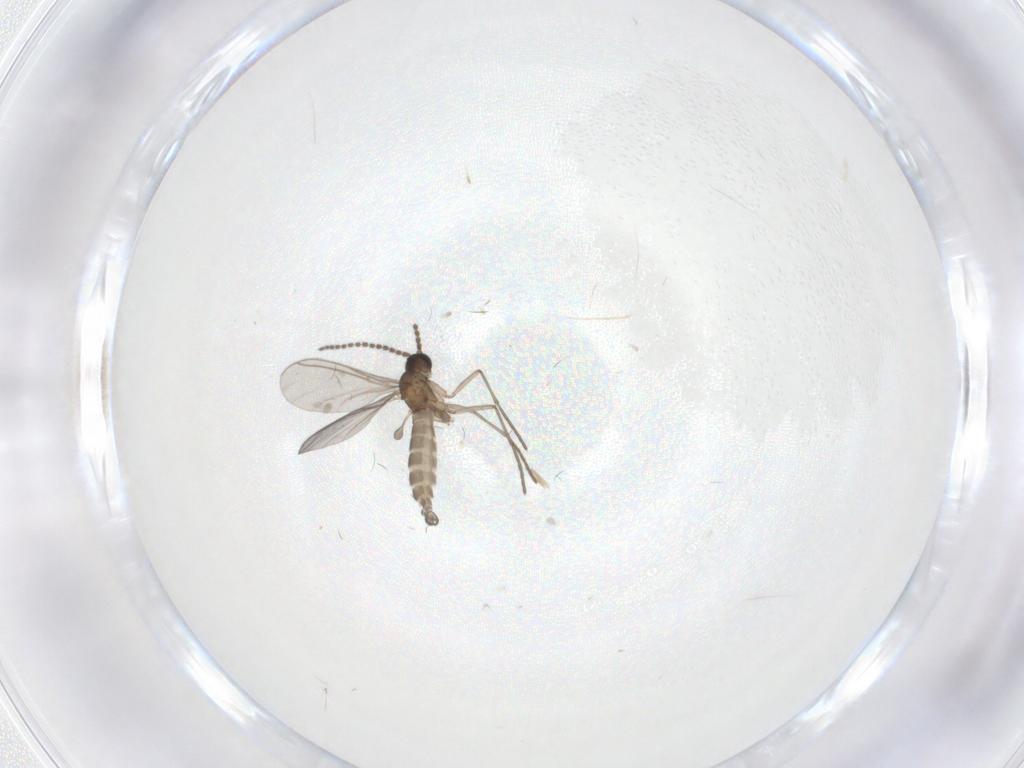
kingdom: Animalia
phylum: Arthropoda
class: Insecta
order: Diptera
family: Sciaridae
